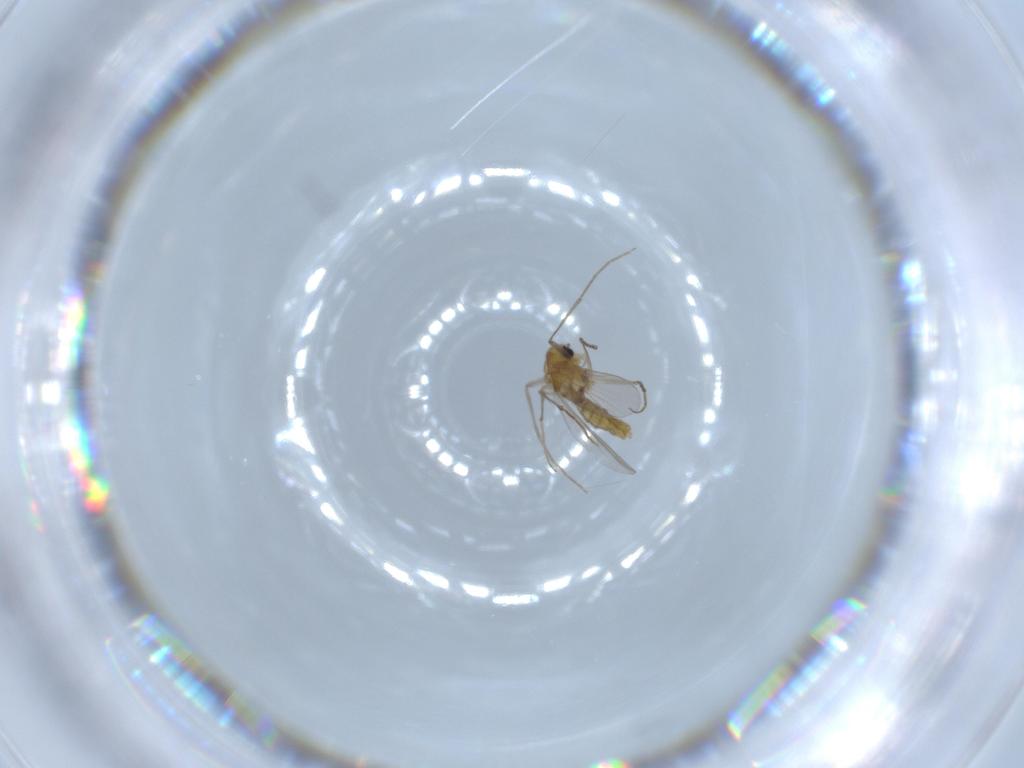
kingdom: Animalia
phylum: Arthropoda
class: Insecta
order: Diptera
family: Chironomidae
